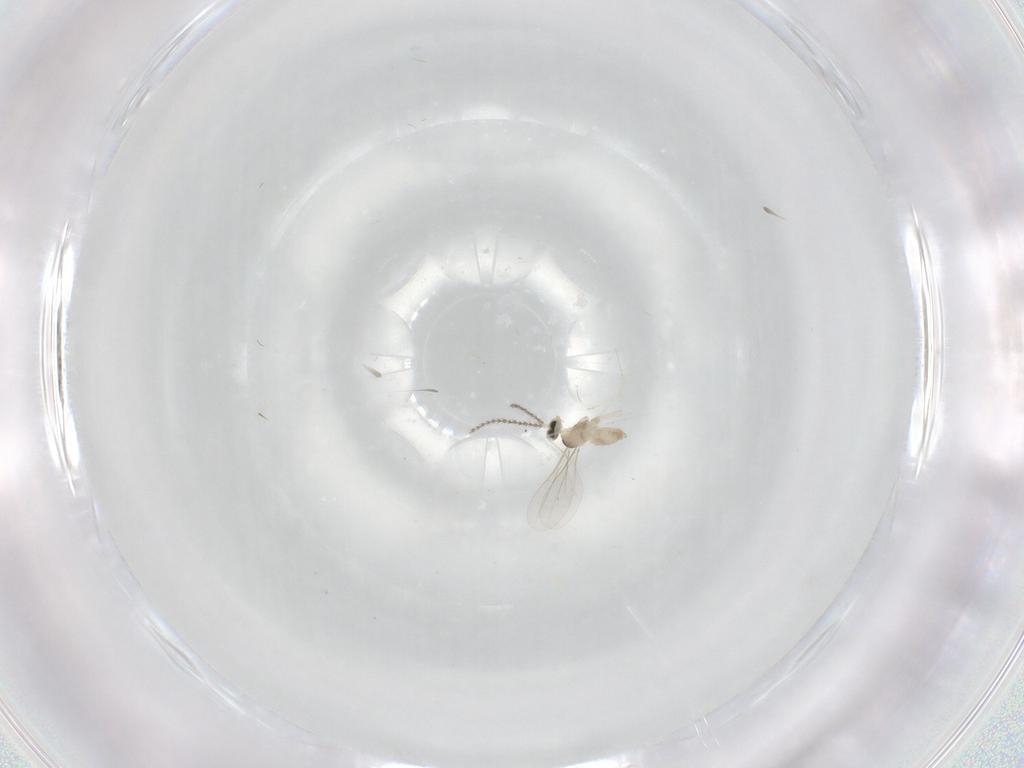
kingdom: Animalia
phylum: Arthropoda
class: Insecta
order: Diptera
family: Cecidomyiidae
